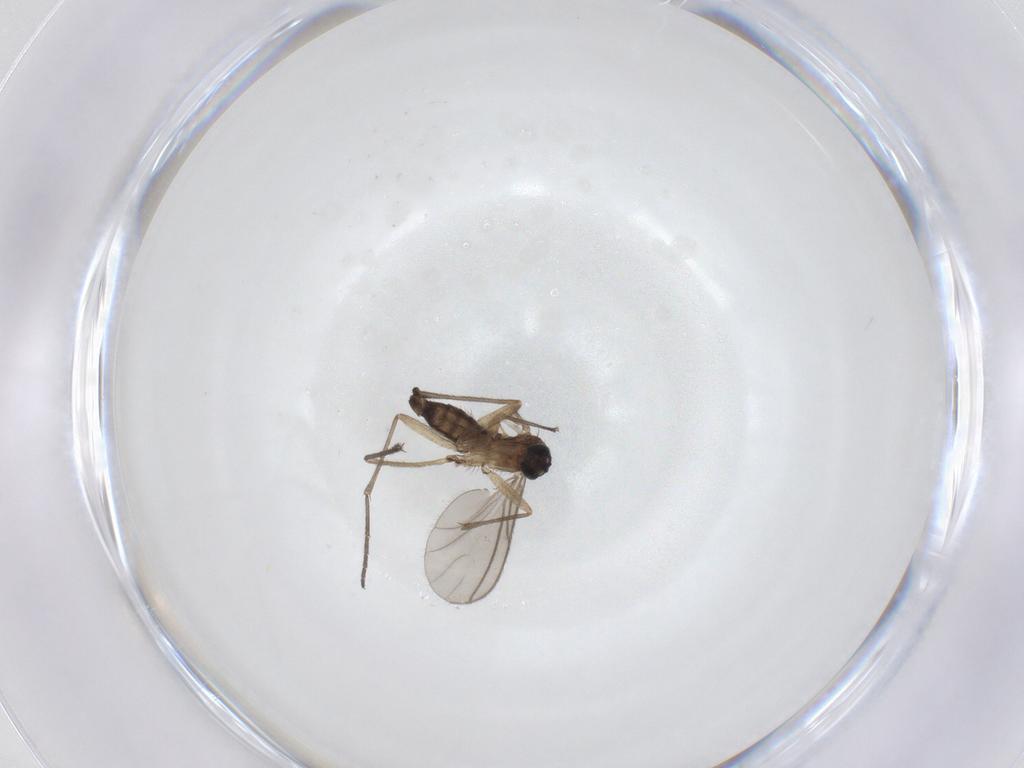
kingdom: Animalia
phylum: Arthropoda
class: Insecta
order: Diptera
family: Sciaridae
